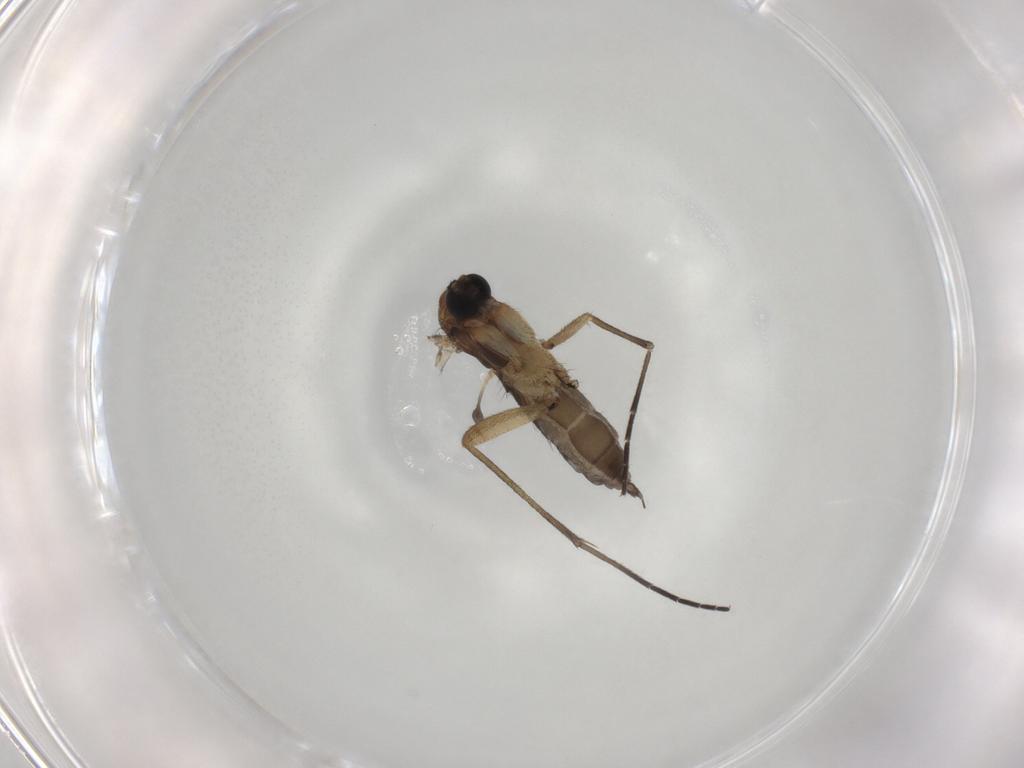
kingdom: Animalia
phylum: Arthropoda
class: Insecta
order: Diptera
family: Sciaridae
